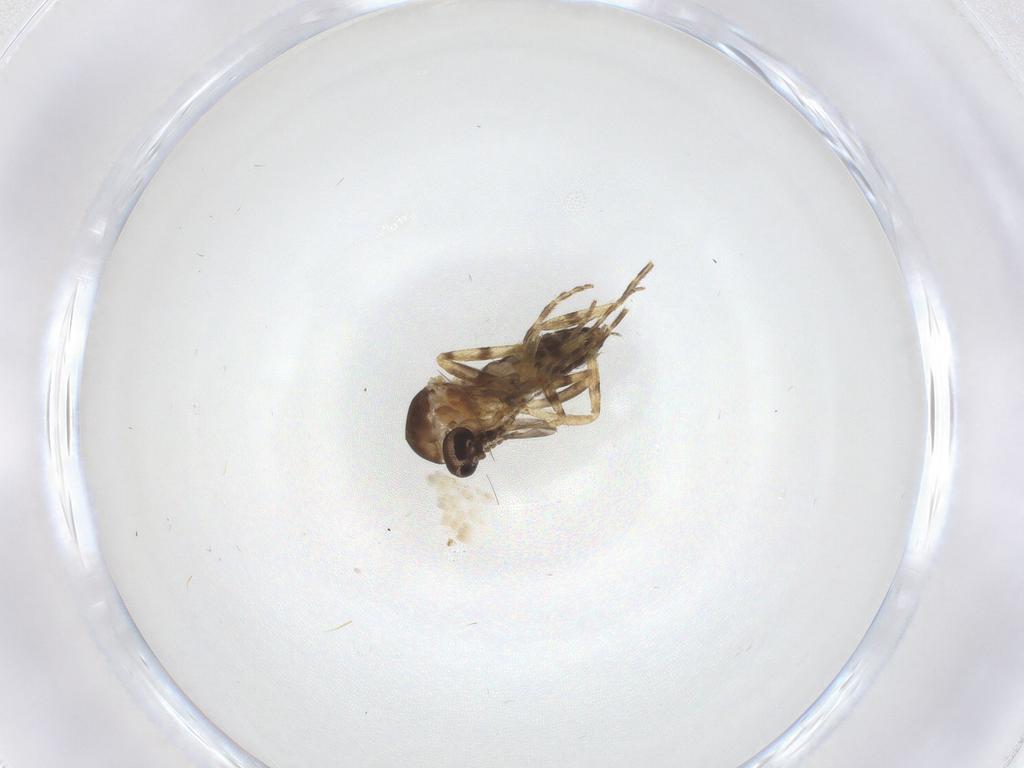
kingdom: Animalia
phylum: Arthropoda
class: Insecta
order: Diptera
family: Ceratopogonidae
